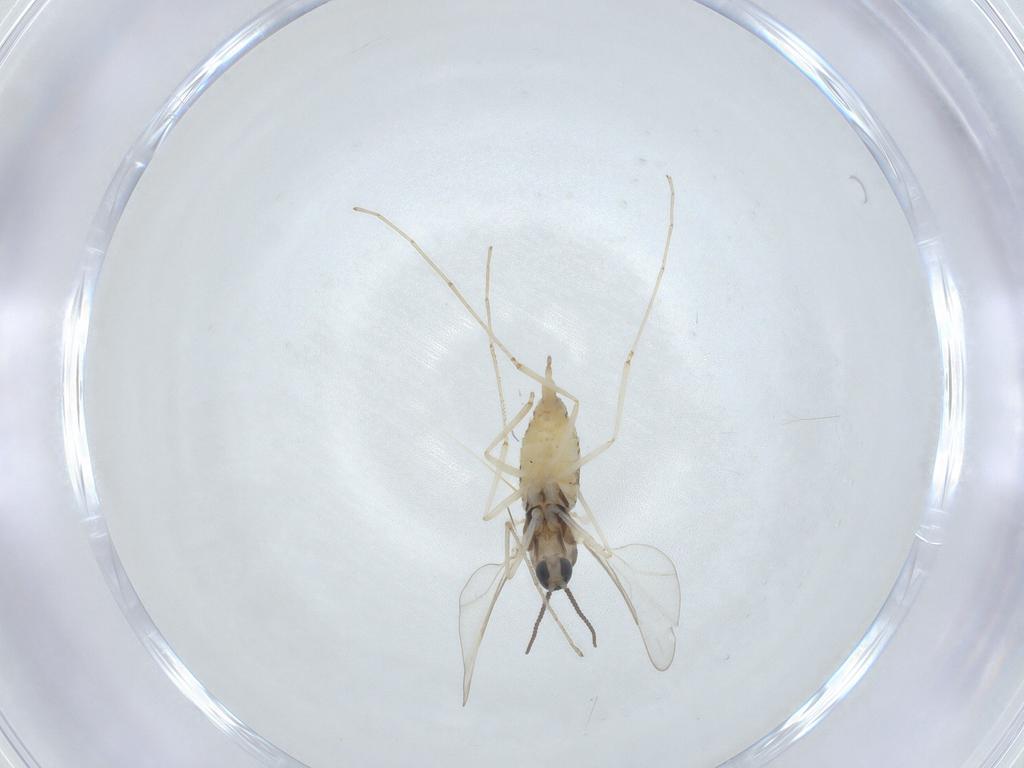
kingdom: Animalia
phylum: Arthropoda
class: Insecta
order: Diptera
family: Cecidomyiidae
